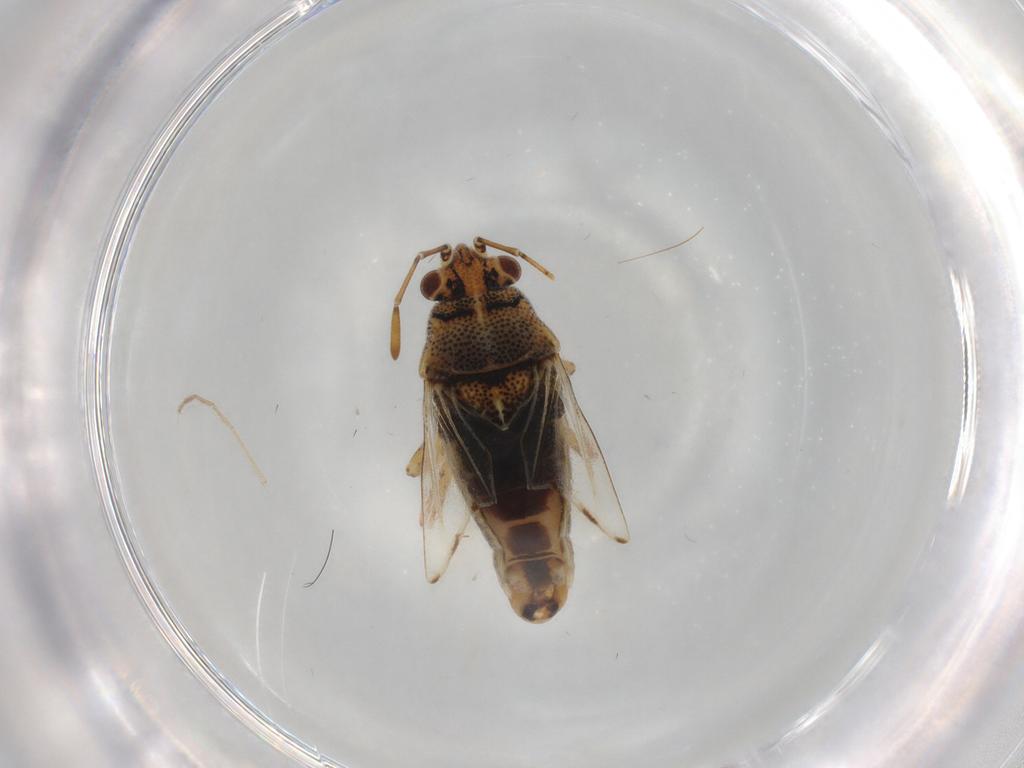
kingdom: Animalia
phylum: Arthropoda
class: Insecta
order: Hemiptera
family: Lygaeidae
